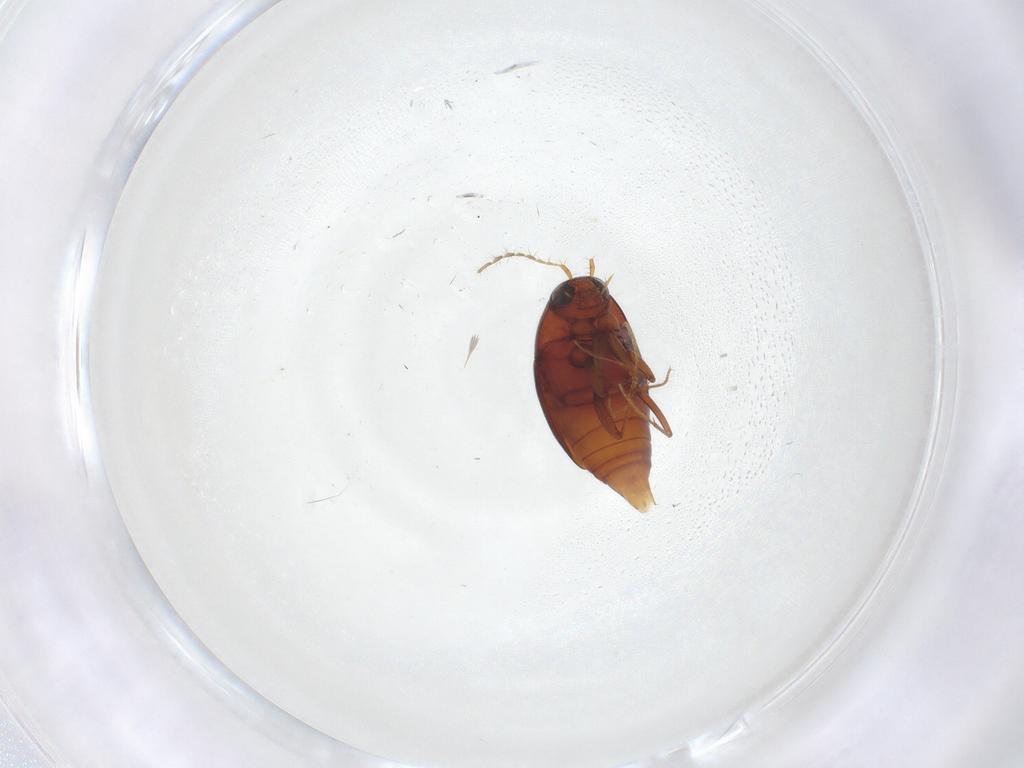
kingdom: Animalia
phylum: Arthropoda
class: Insecta
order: Coleoptera
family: Staphylinidae
